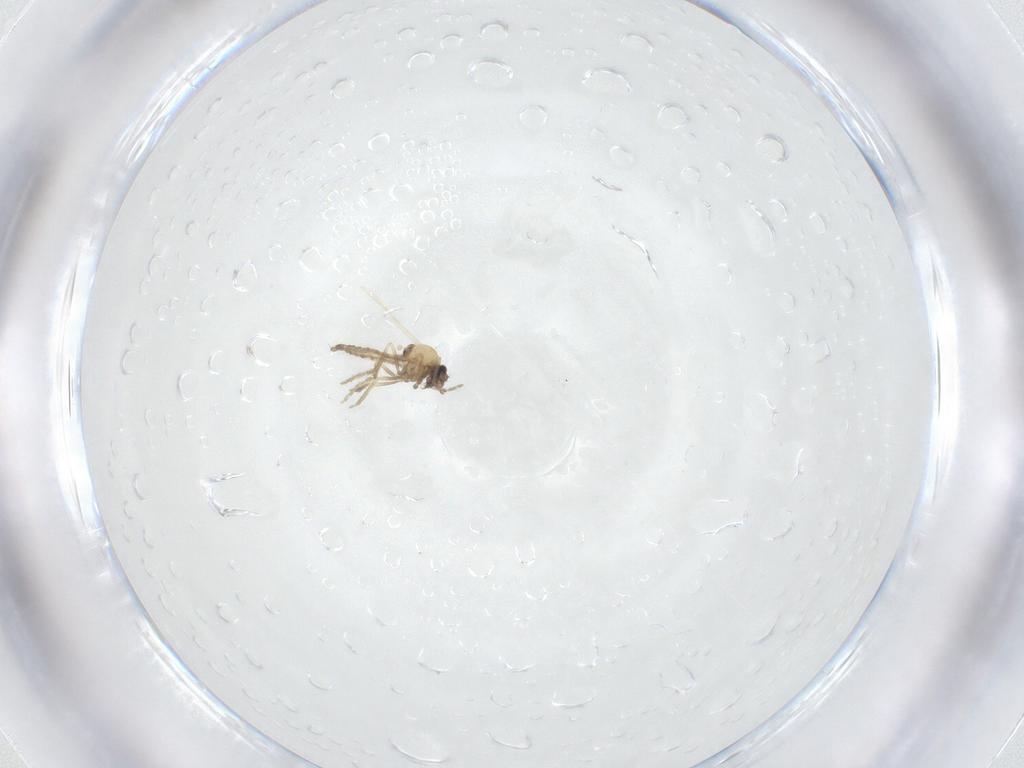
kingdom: Animalia
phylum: Arthropoda
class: Insecta
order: Diptera
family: Ceratopogonidae
